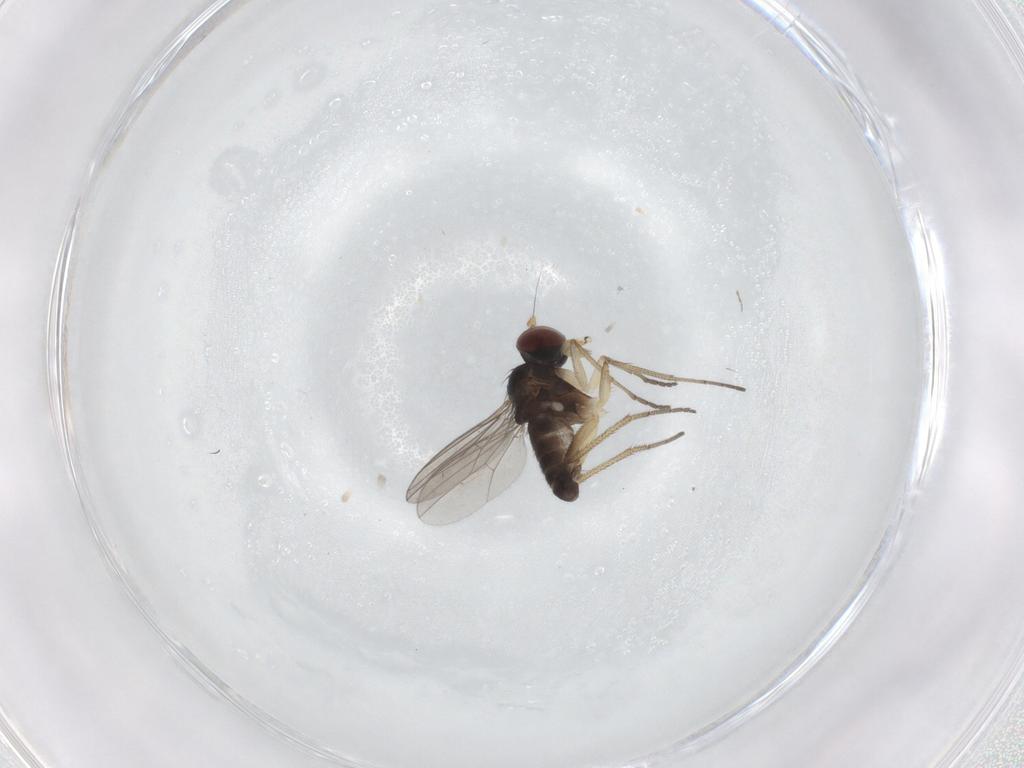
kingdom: Animalia
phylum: Arthropoda
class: Insecta
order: Diptera
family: Dolichopodidae
